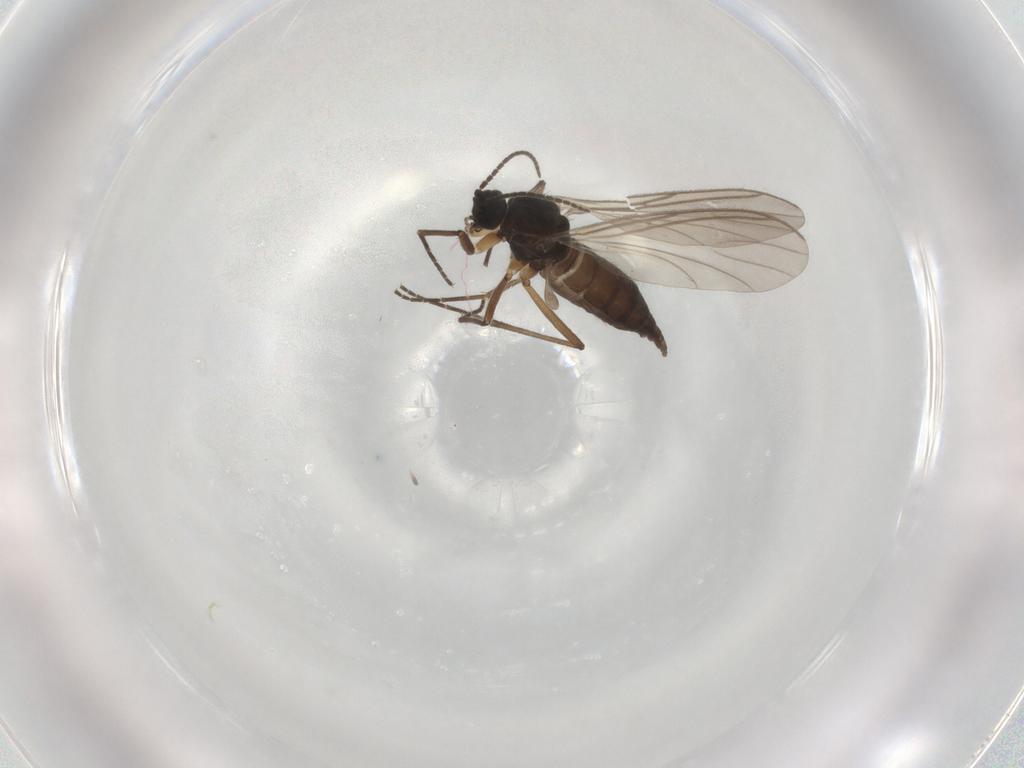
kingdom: Animalia
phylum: Arthropoda
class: Insecta
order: Diptera
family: Sciaridae
